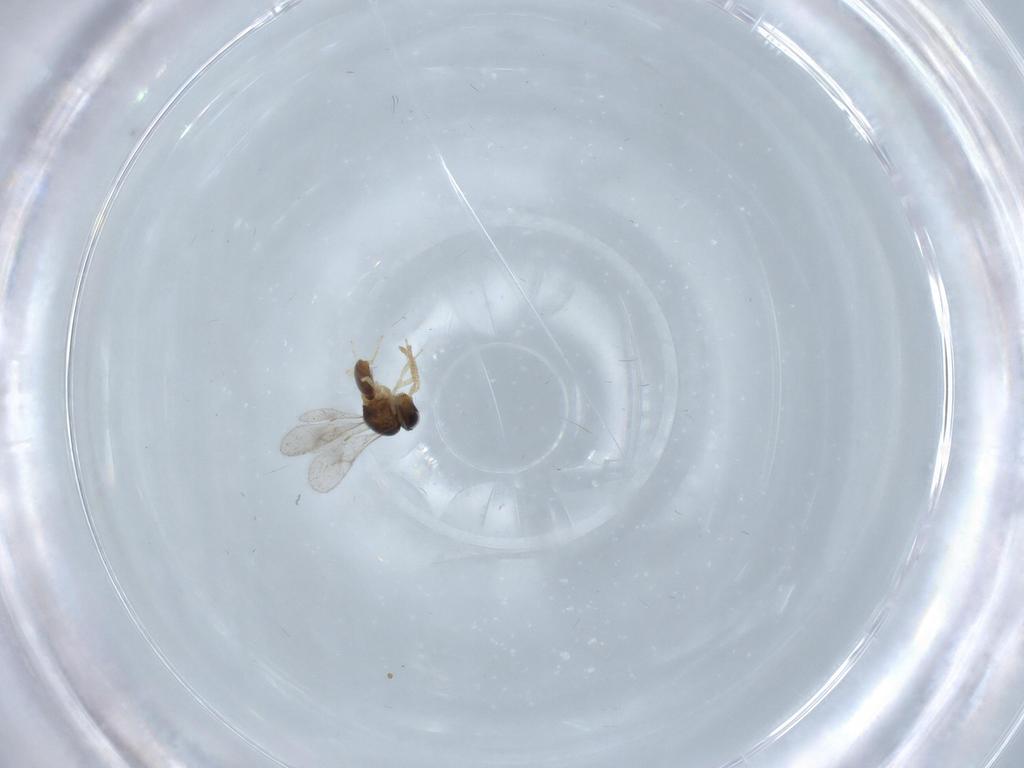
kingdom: Animalia
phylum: Arthropoda
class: Insecta
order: Hymenoptera
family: Scelionidae
